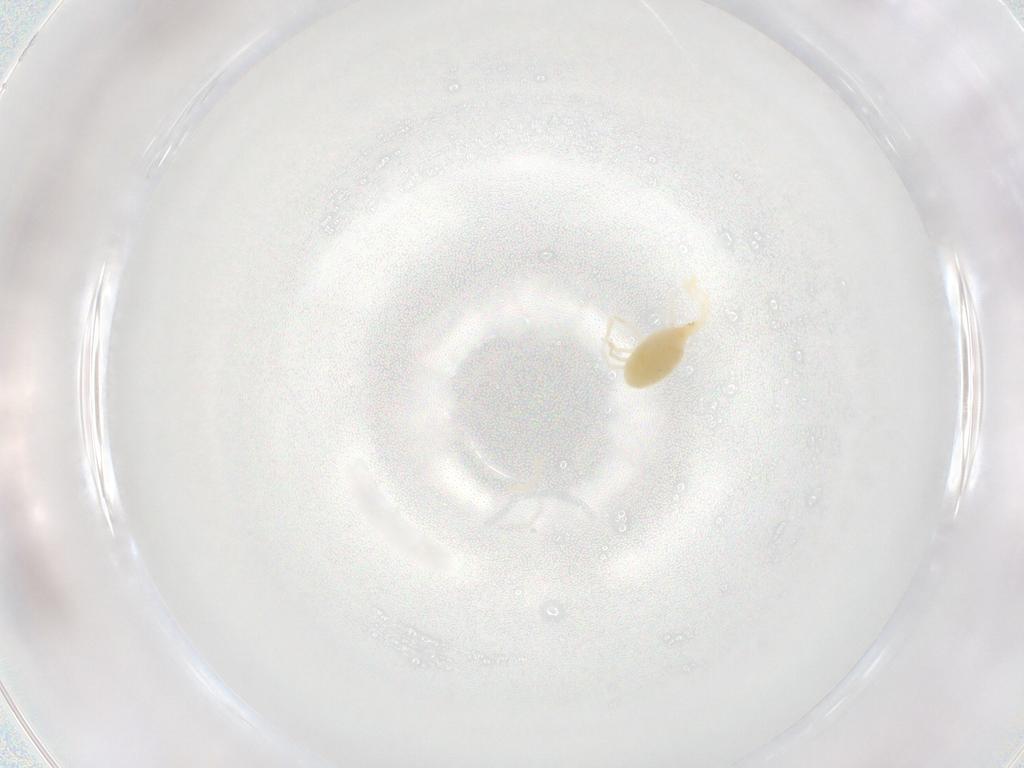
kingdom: Animalia
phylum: Arthropoda
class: Arachnida
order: Trombidiformes
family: Erythraeidae
